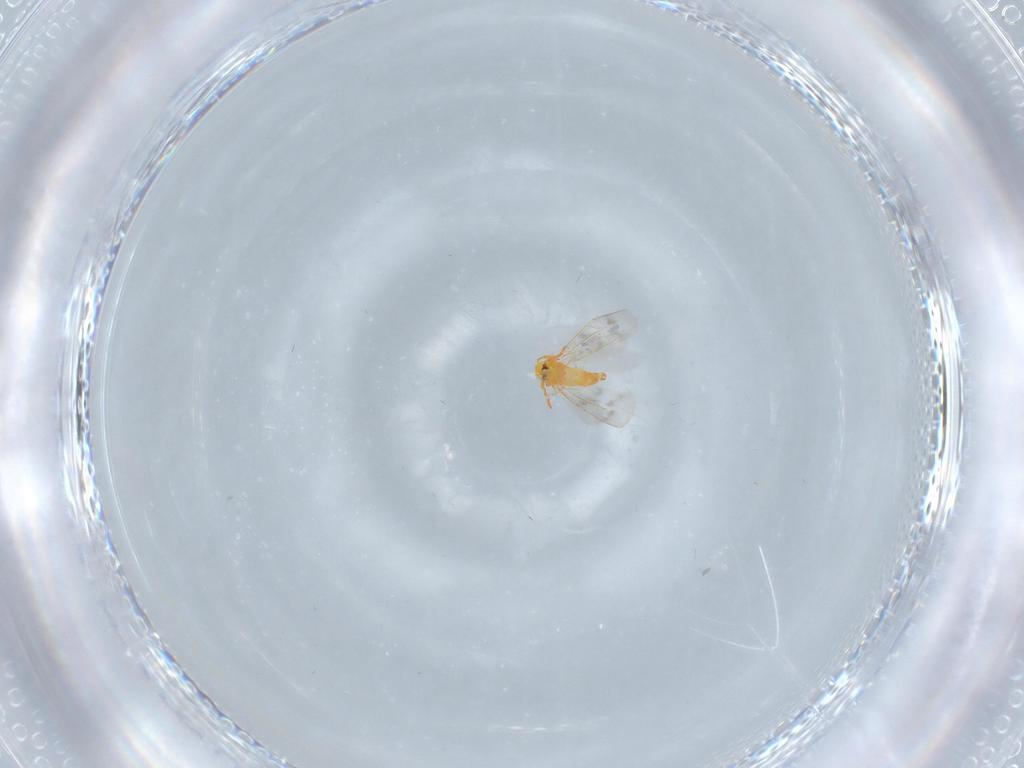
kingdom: Animalia
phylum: Arthropoda
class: Insecta
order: Hemiptera
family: Aleyrodidae
